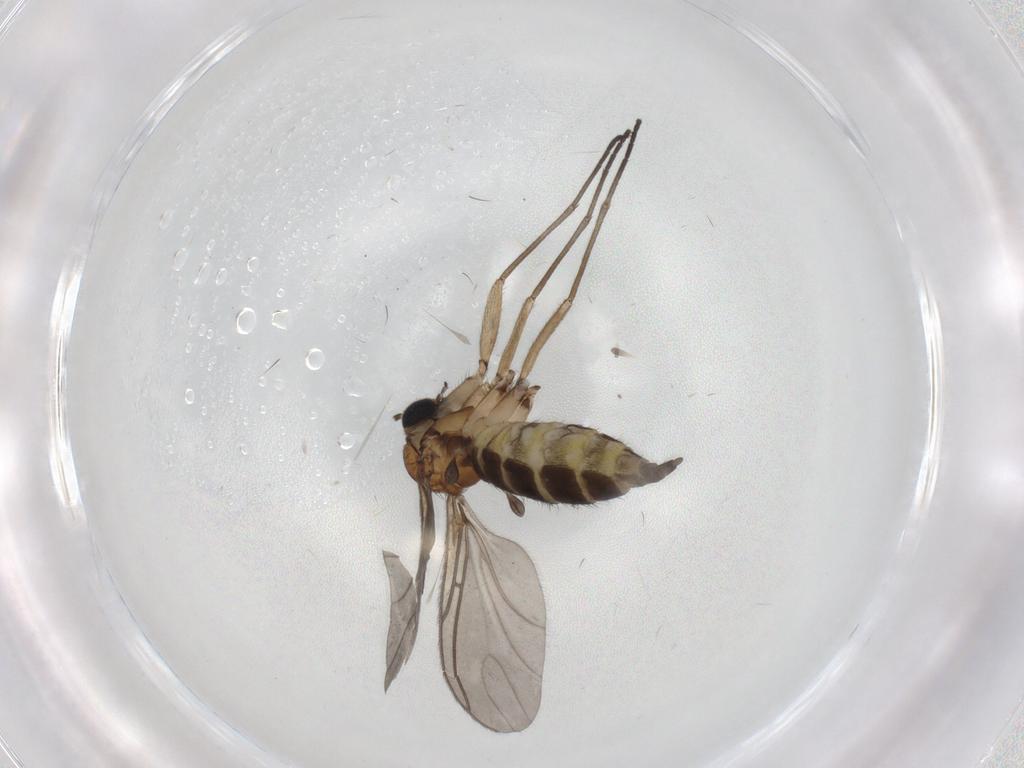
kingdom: Animalia
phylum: Arthropoda
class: Insecta
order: Diptera
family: Sciaridae
